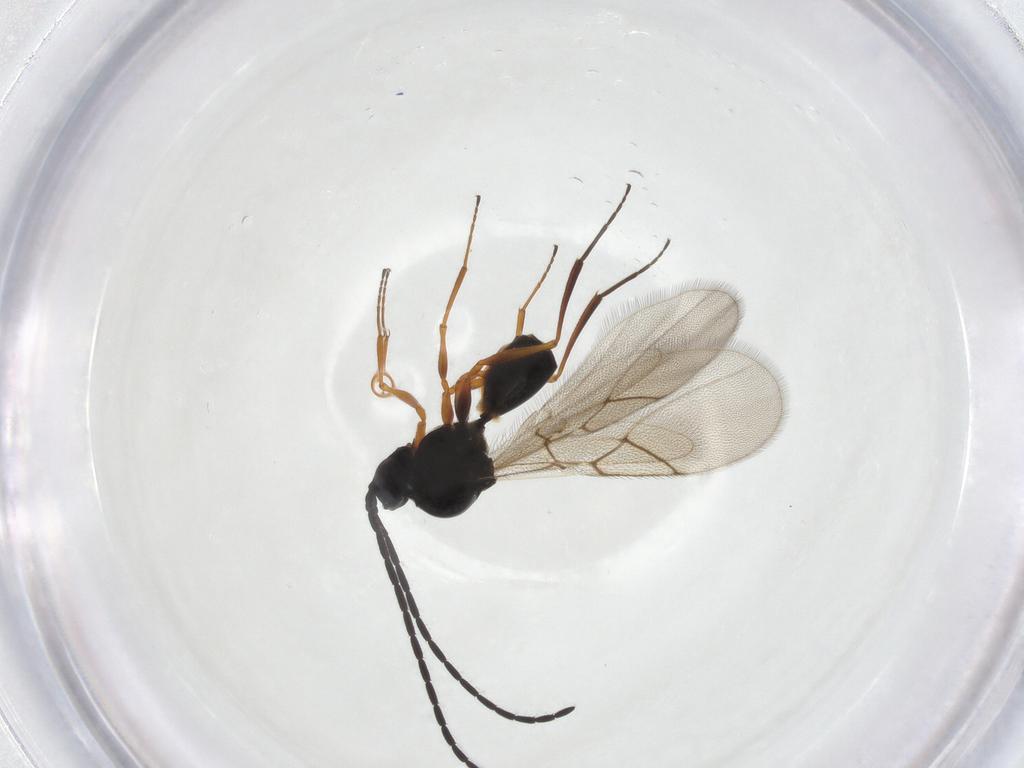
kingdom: Animalia
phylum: Arthropoda
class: Insecta
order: Hymenoptera
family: Figitidae
